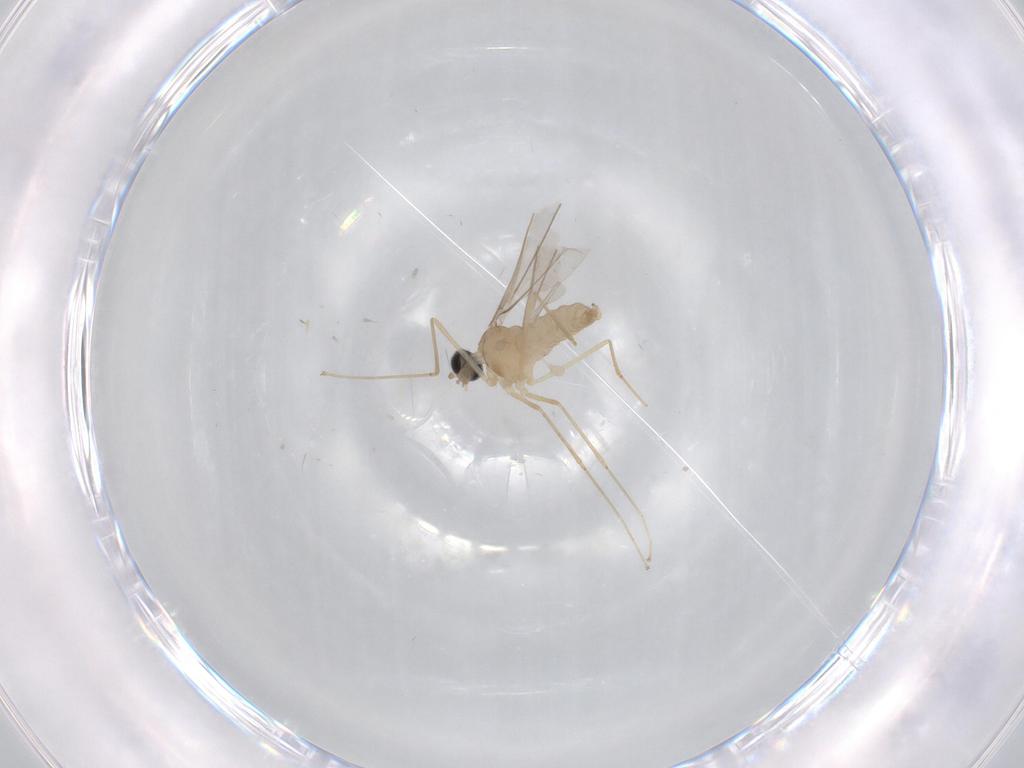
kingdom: Animalia
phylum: Arthropoda
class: Insecta
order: Diptera
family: Cecidomyiidae
